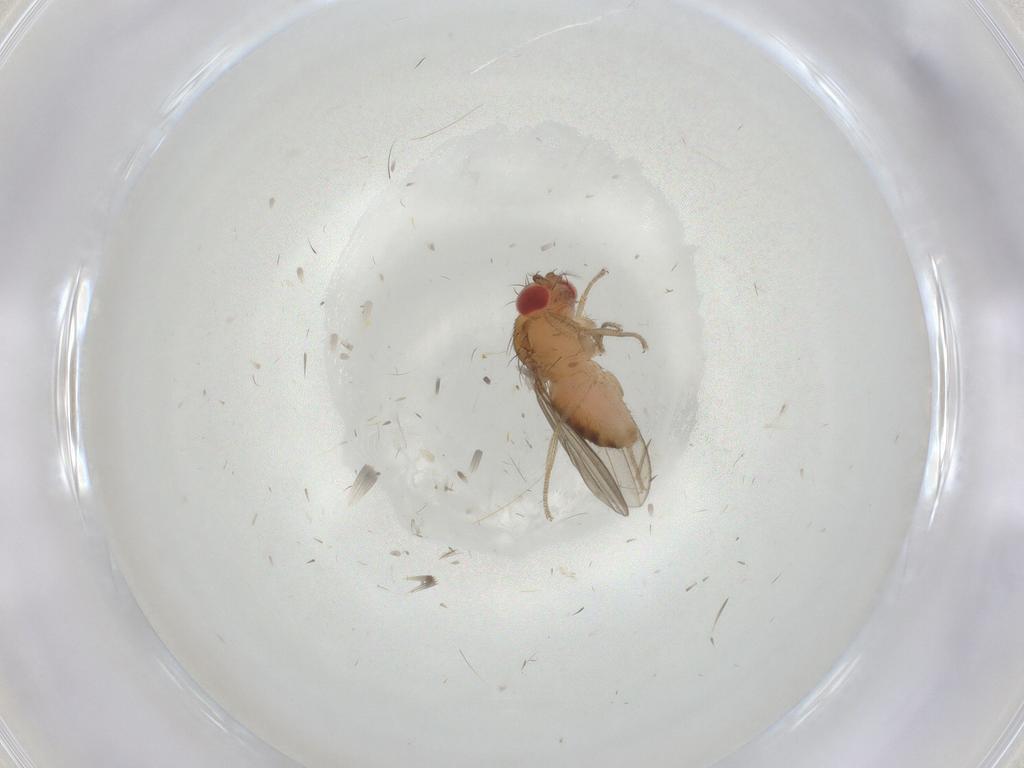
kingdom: Animalia
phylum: Arthropoda
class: Insecta
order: Diptera
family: Drosophilidae
